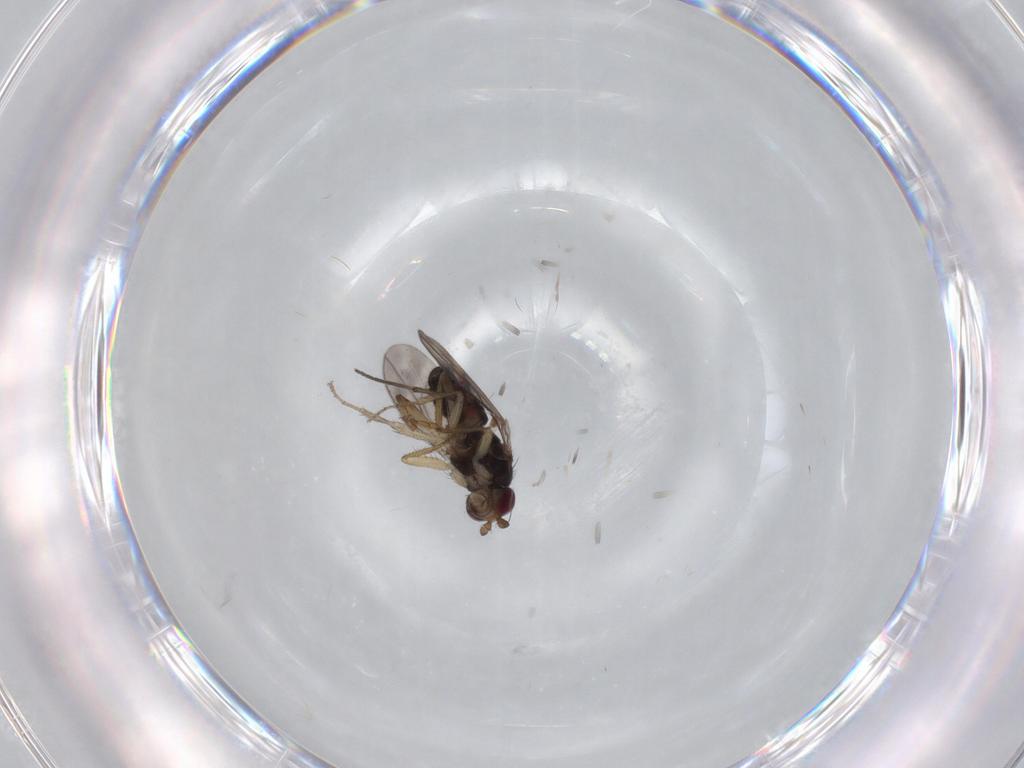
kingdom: Animalia
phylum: Arthropoda
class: Insecta
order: Diptera
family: Sphaeroceridae
